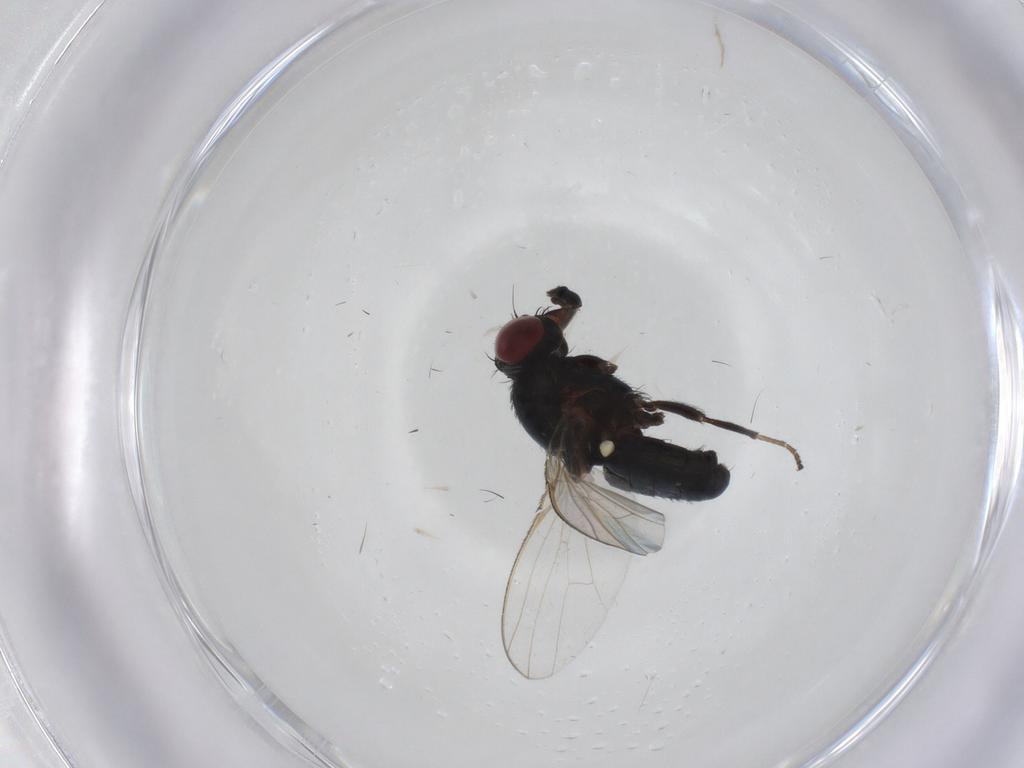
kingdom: Animalia
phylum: Arthropoda
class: Insecta
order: Diptera
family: Carnidae
